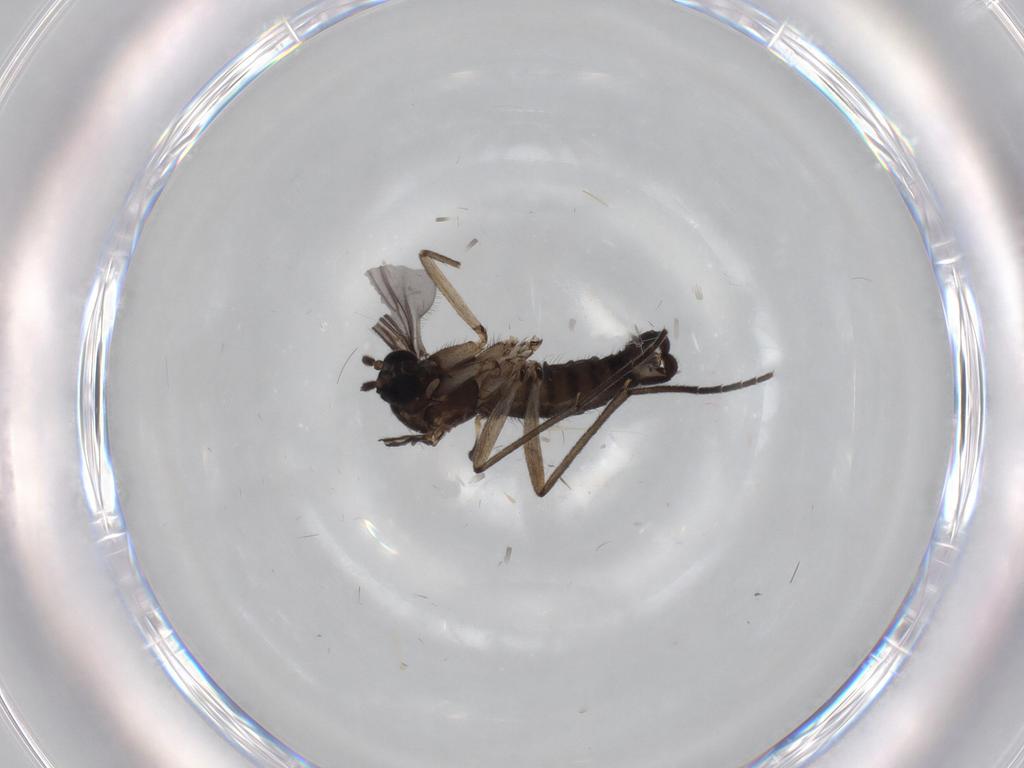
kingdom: Animalia
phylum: Arthropoda
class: Insecta
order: Diptera
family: Sciaridae
